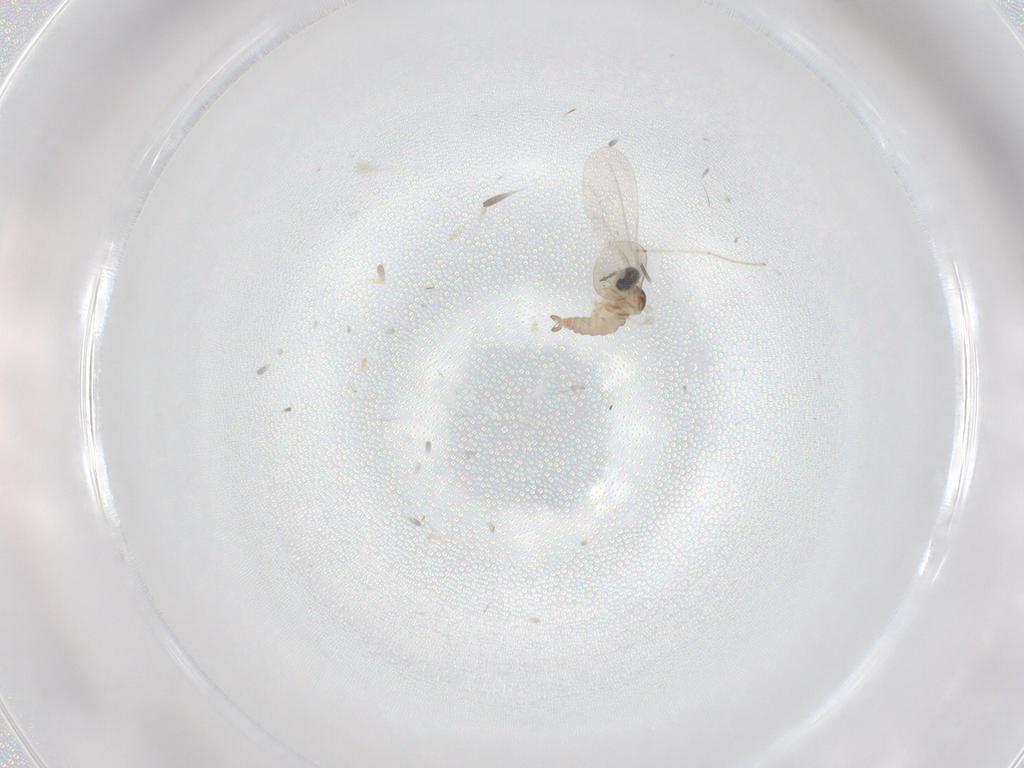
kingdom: Animalia
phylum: Arthropoda
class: Insecta
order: Diptera
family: Cecidomyiidae
